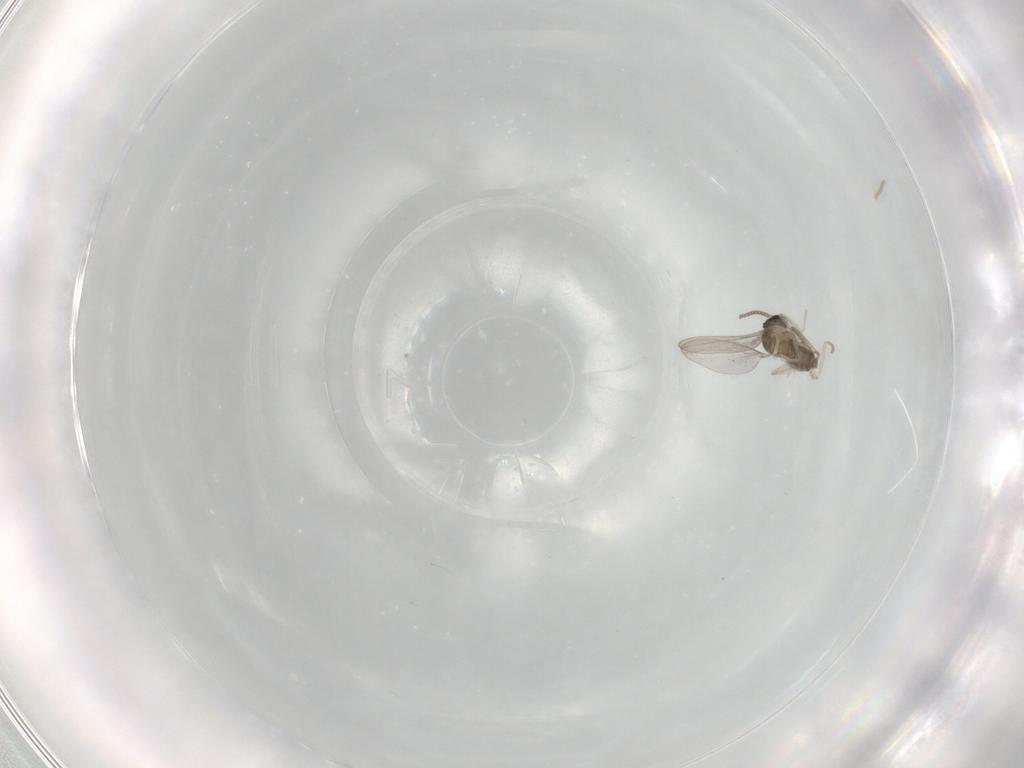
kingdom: Animalia
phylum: Arthropoda
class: Insecta
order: Diptera
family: Cecidomyiidae
